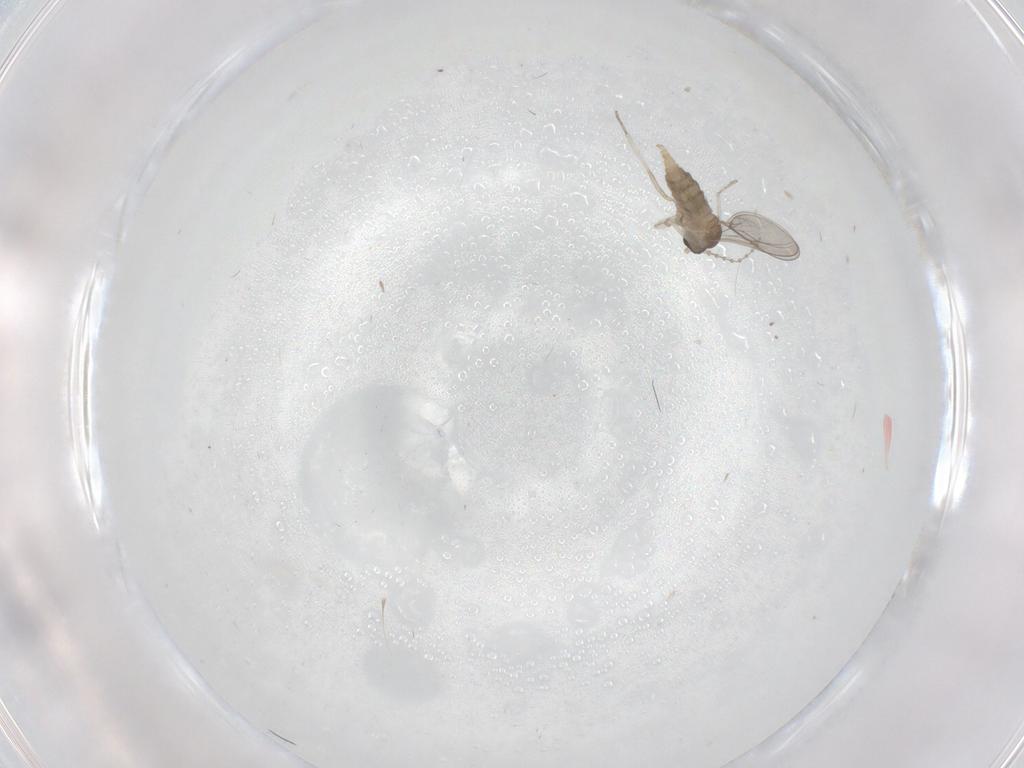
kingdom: Animalia
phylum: Arthropoda
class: Insecta
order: Diptera
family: Cecidomyiidae
